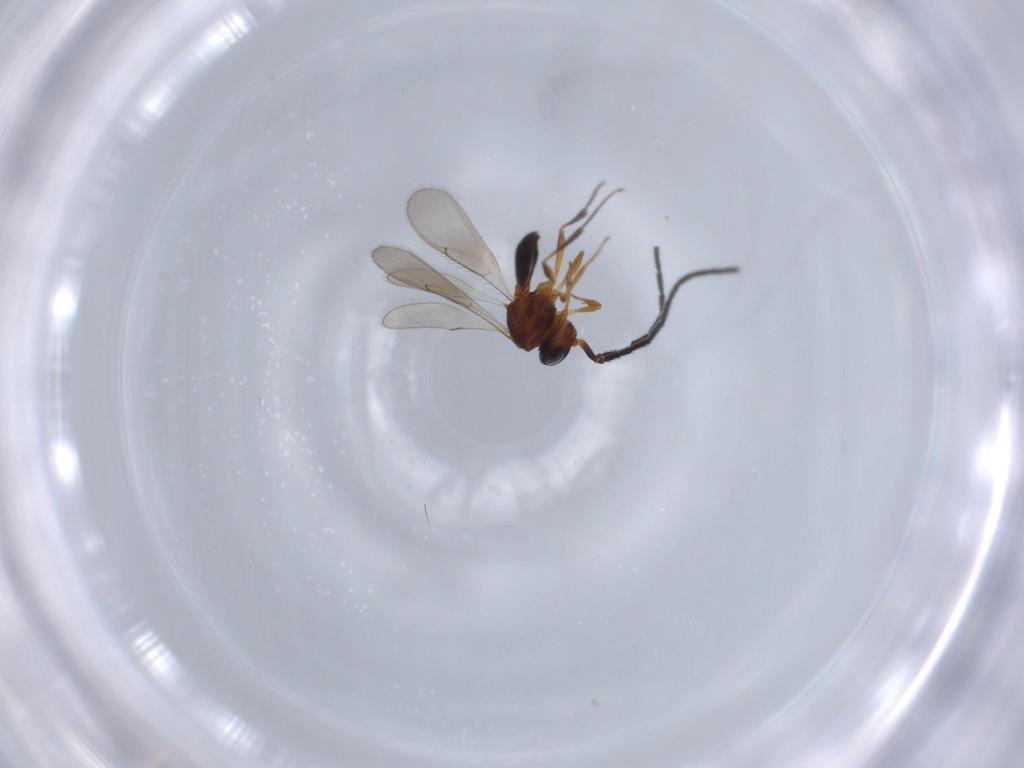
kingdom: Animalia
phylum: Arthropoda
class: Insecta
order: Hymenoptera
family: Scelionidae
